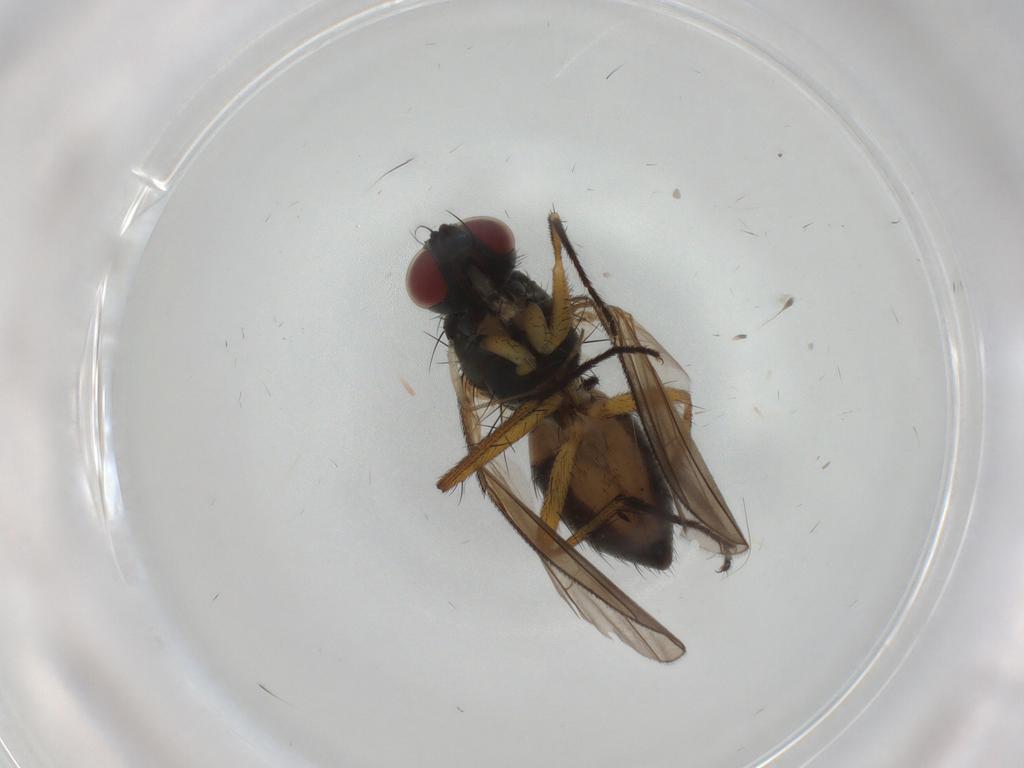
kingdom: Animalia
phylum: Arthropoda
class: Insecta
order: Diptera
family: Muscidae
